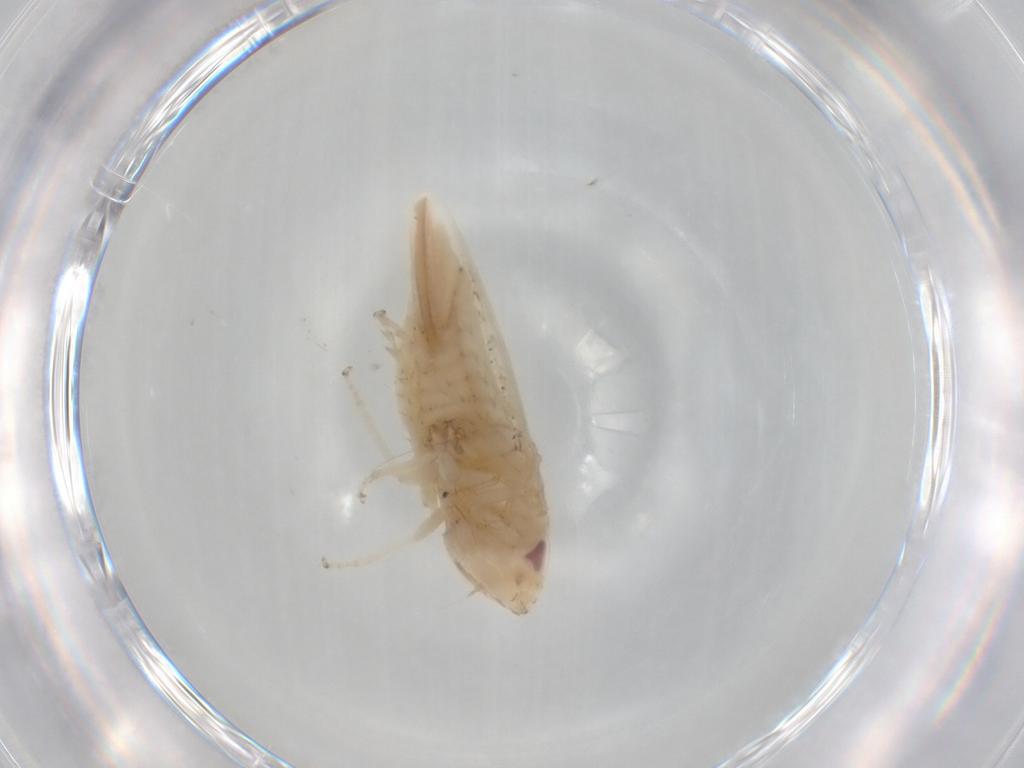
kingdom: Animalia
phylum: Arthropoda
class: Insecta
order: Hemiptera
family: Cicadellidae
